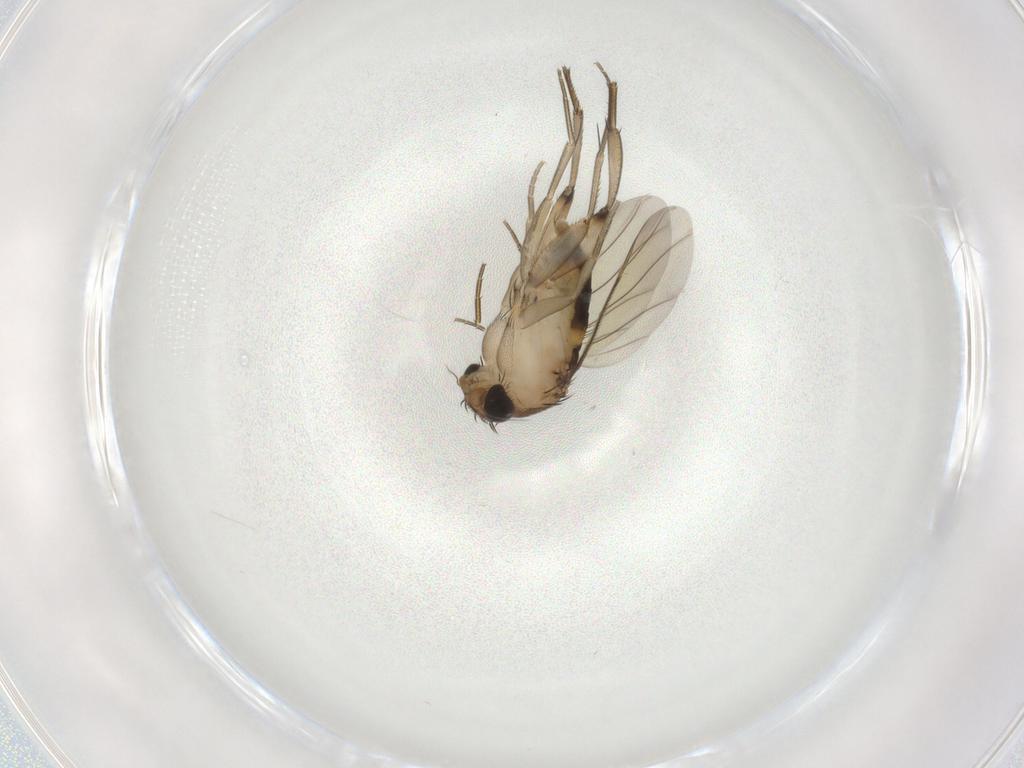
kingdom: Animalia
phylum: Arthropoda
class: Insecta
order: Diptera
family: Phoridae
